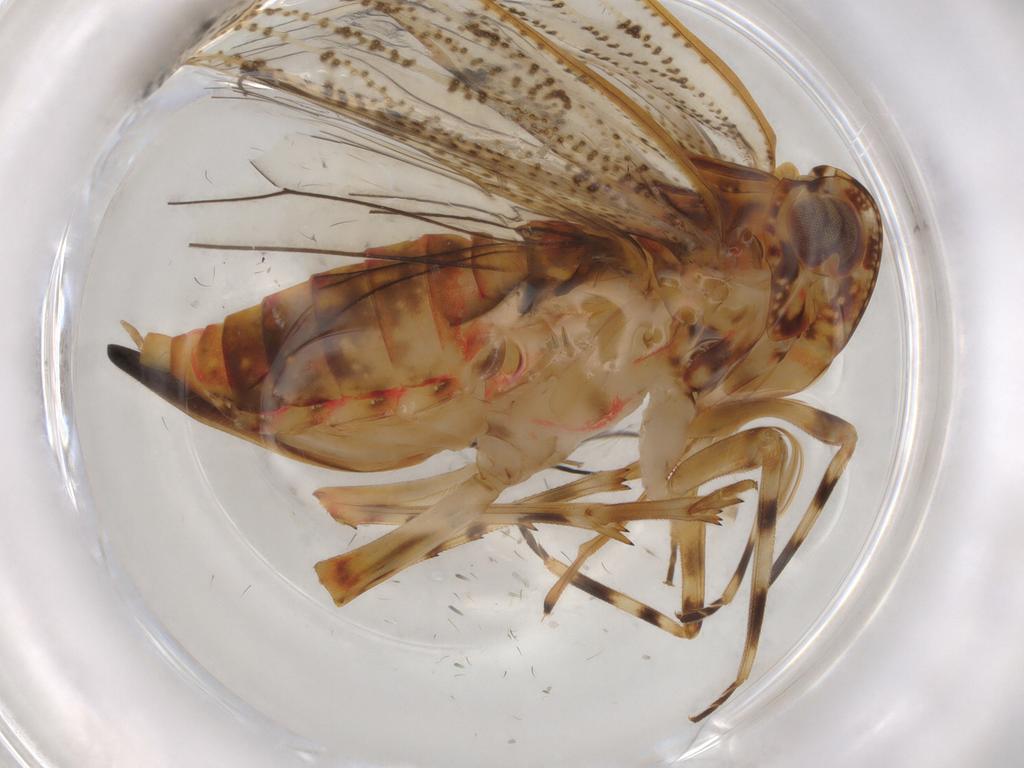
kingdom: Animalia
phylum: Arthropoda
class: Insecta
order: Hemiptera
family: Delphacidae
